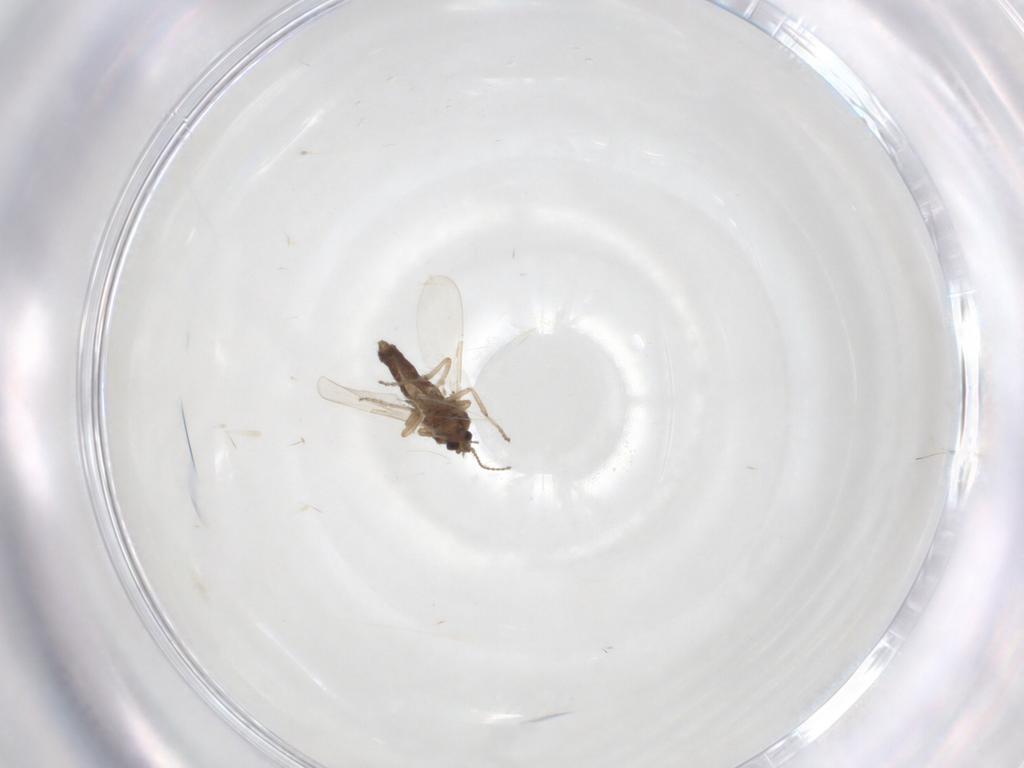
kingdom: Animalia
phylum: Arthropoda
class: Insecta
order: Diptera
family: Ceratopogonidae
